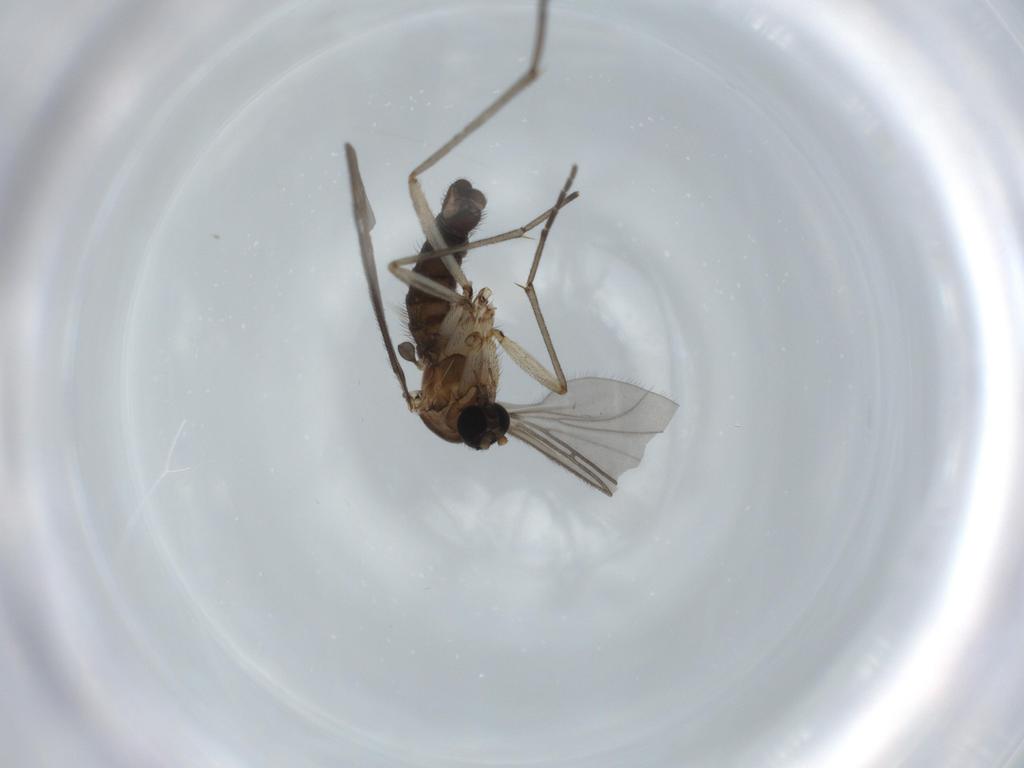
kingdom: Animalia
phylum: Arthropoda
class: Insecta
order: Diptera
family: Sciaridae
